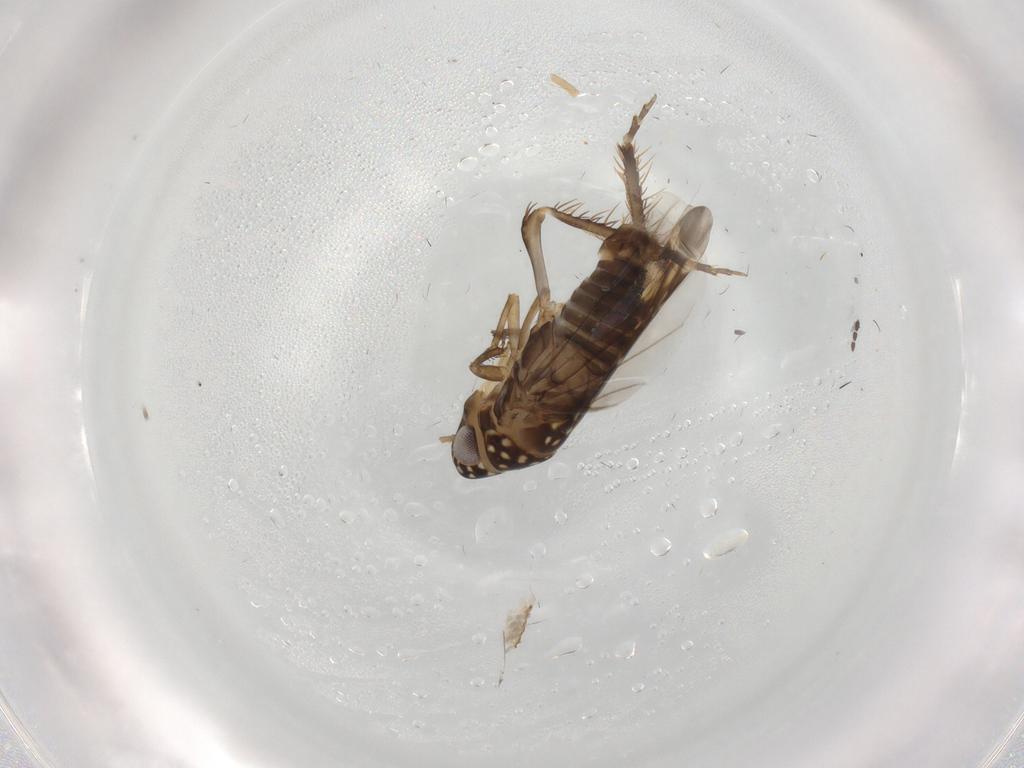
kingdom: Animalia
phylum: Arthropoda
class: Insecta
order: Hemiptera
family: Cicadellidae
